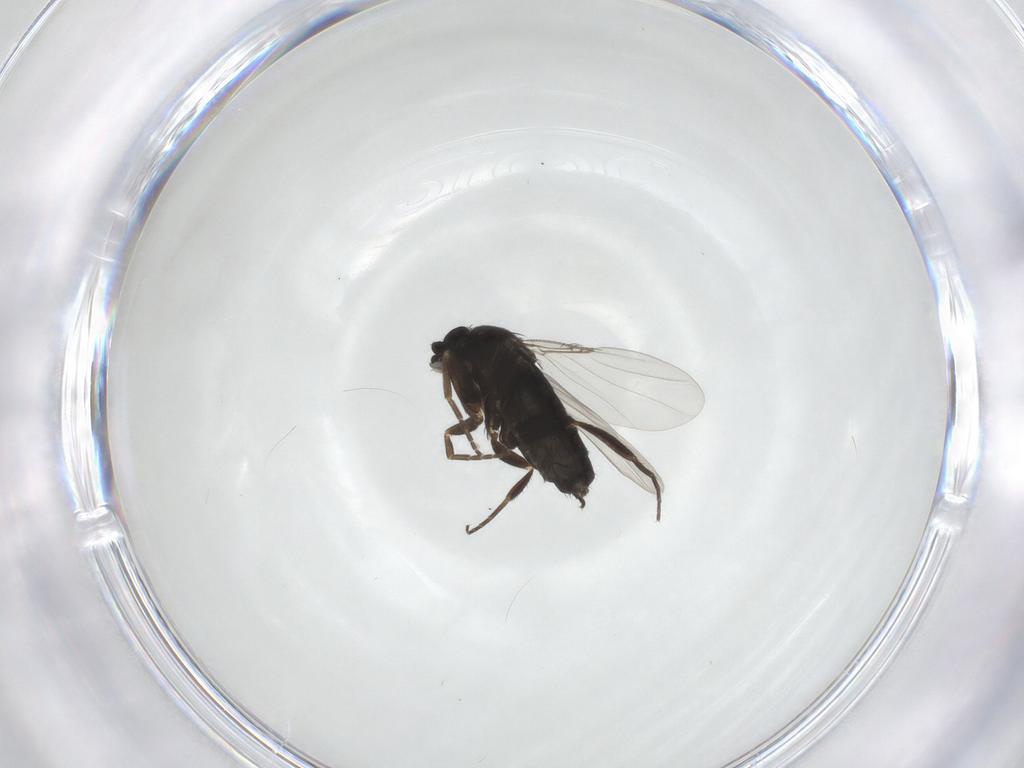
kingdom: Animalia
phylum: Arthropoda
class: Insecta
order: Diptera
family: Phoridae
